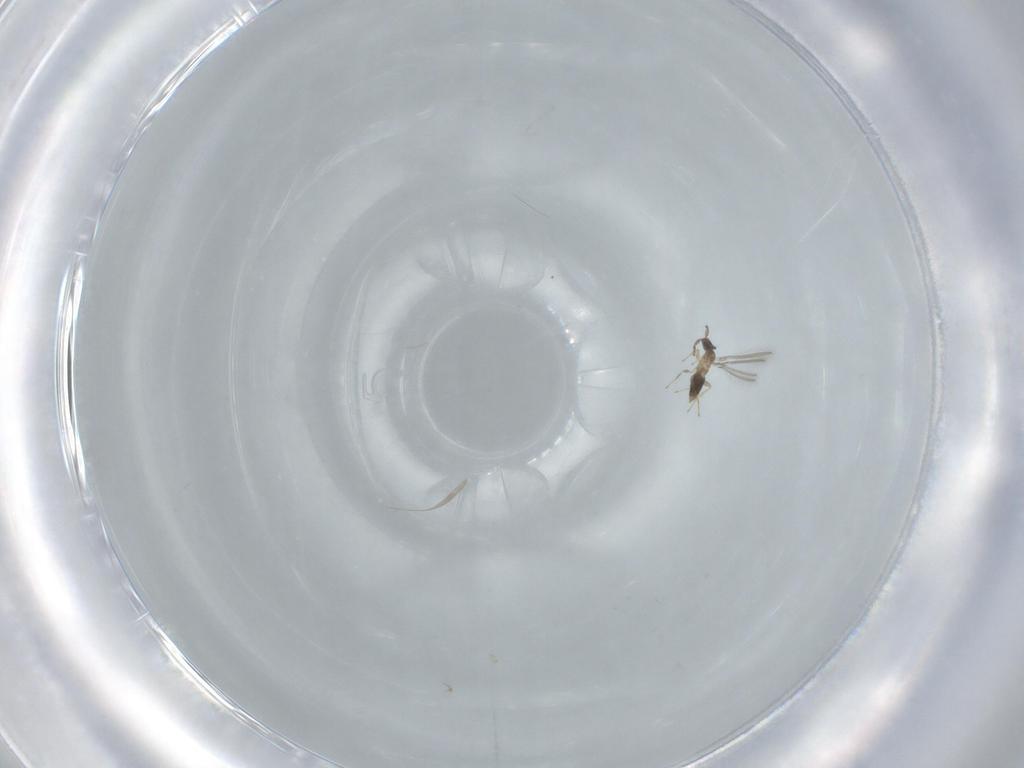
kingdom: Animalia
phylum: Arthropoda
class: Insecta
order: Hymenoptera
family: Mymaridae
